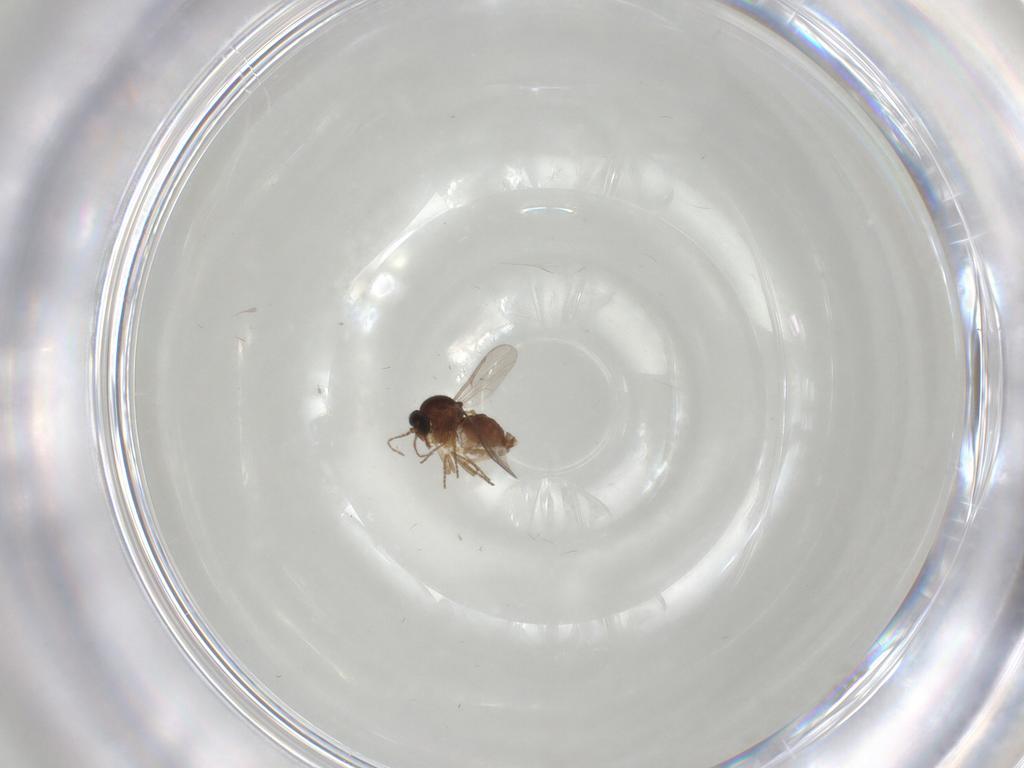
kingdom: Animalia
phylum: Arthropoda
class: Insecta
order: Diptera
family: Ceratopogonidae
